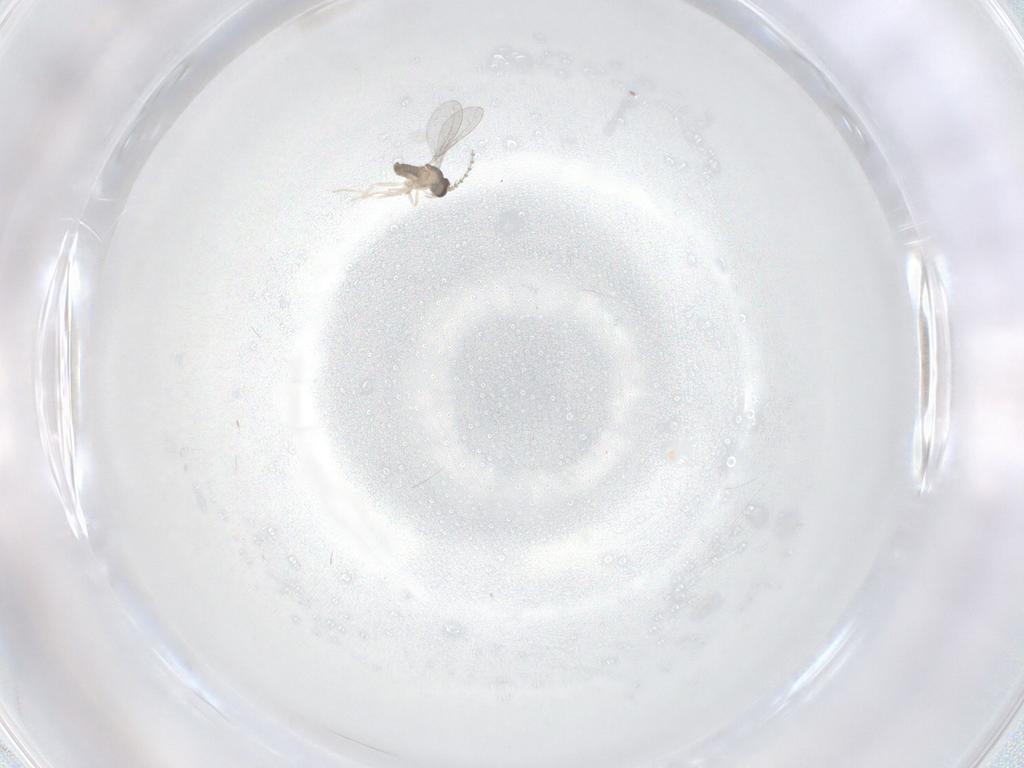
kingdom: Animalia
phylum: Arthropoda
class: Insecta
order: Diptera
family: Cecidomyiidae
